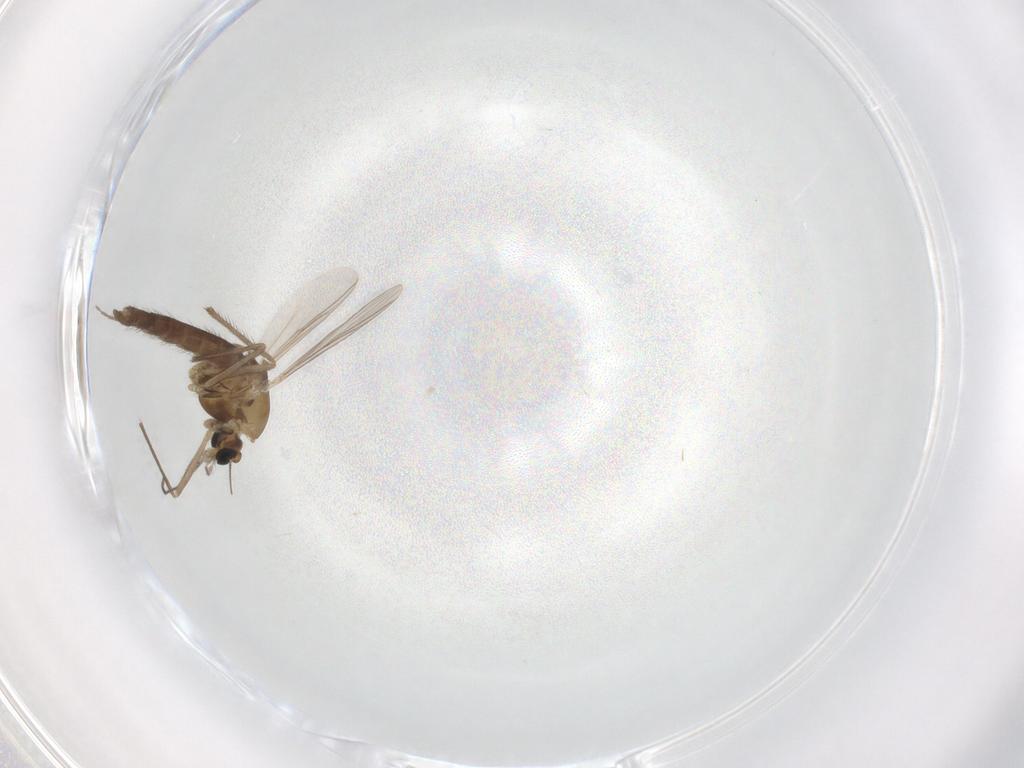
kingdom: Animalia
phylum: Arthropoda
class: Insecta
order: Diptera
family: Chironomidae
